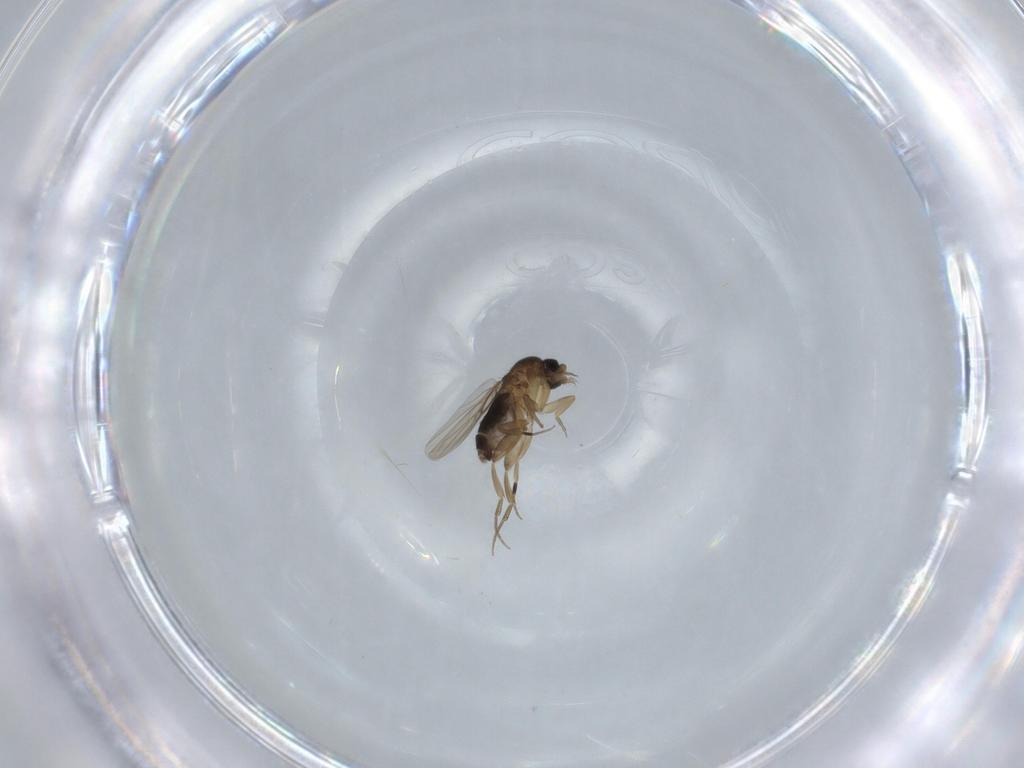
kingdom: Animalia
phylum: Arthropoda
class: Insecta
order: Diptera
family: Phoridae
